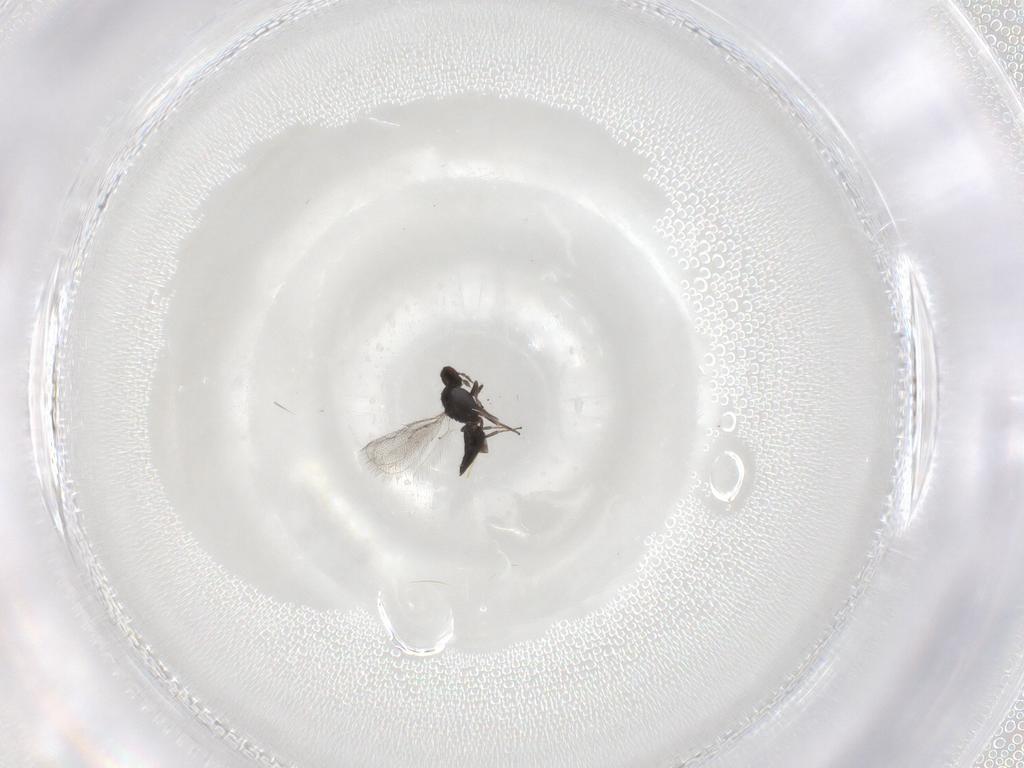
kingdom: Animalia
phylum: Arthropoda
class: Insecta
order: Hymenoptera
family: Eulophidae
